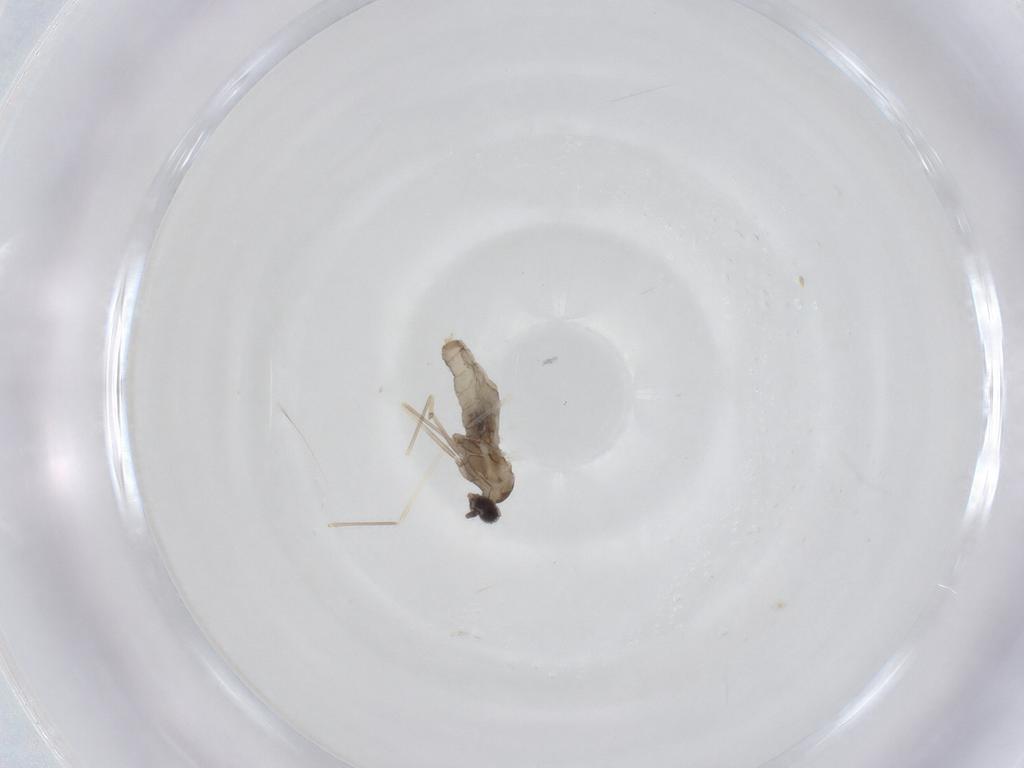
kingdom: Animalia
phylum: Arthropoda
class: Insecta
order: Diptera
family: Cecidomyiidae
